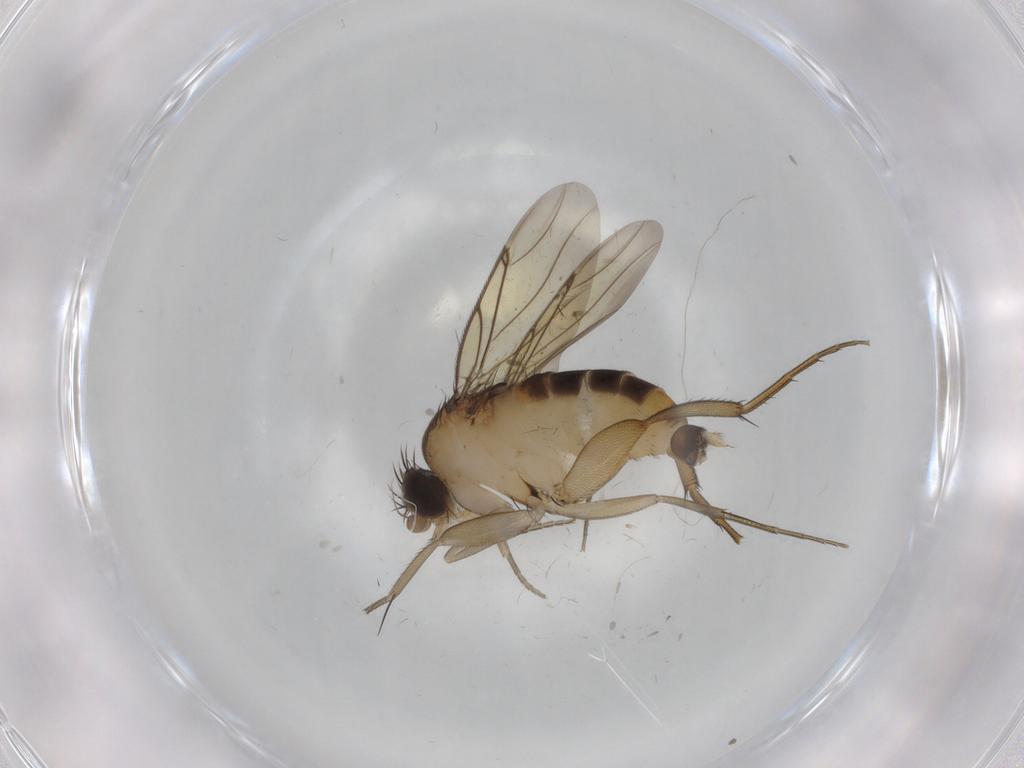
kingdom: Animalia
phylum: Arthropoda
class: Insecta
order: Diptera
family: Cecidomyiidae
